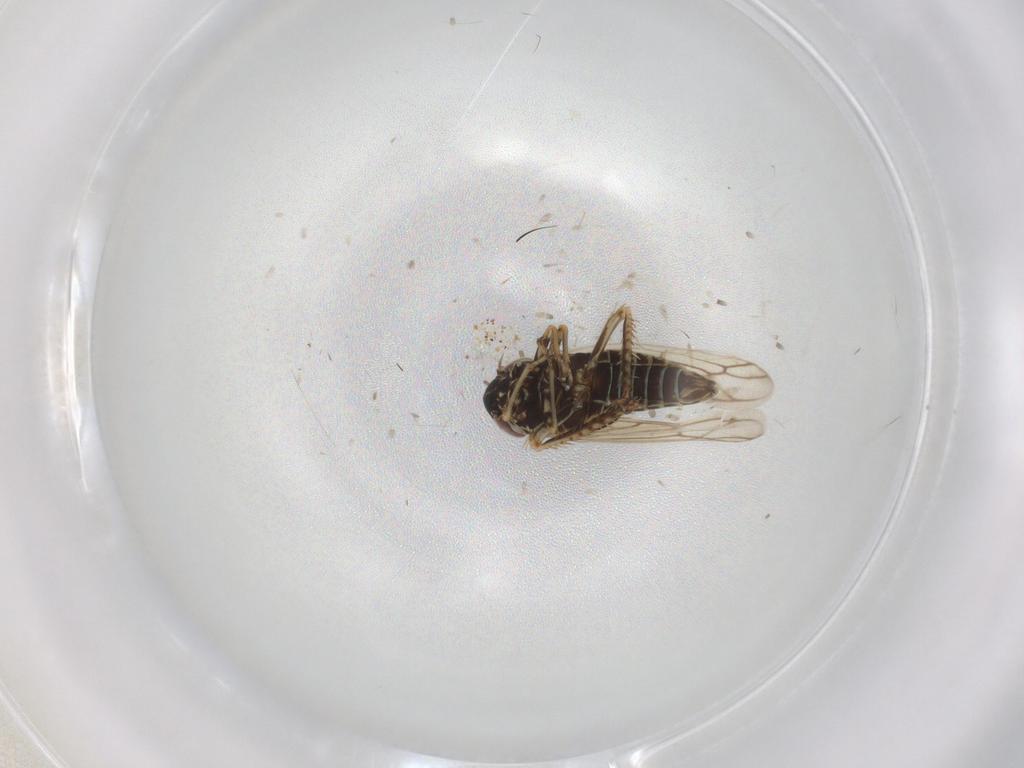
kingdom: Animalia
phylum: Arthropoda
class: Insecta
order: Hemiptera
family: Cicadellidae
